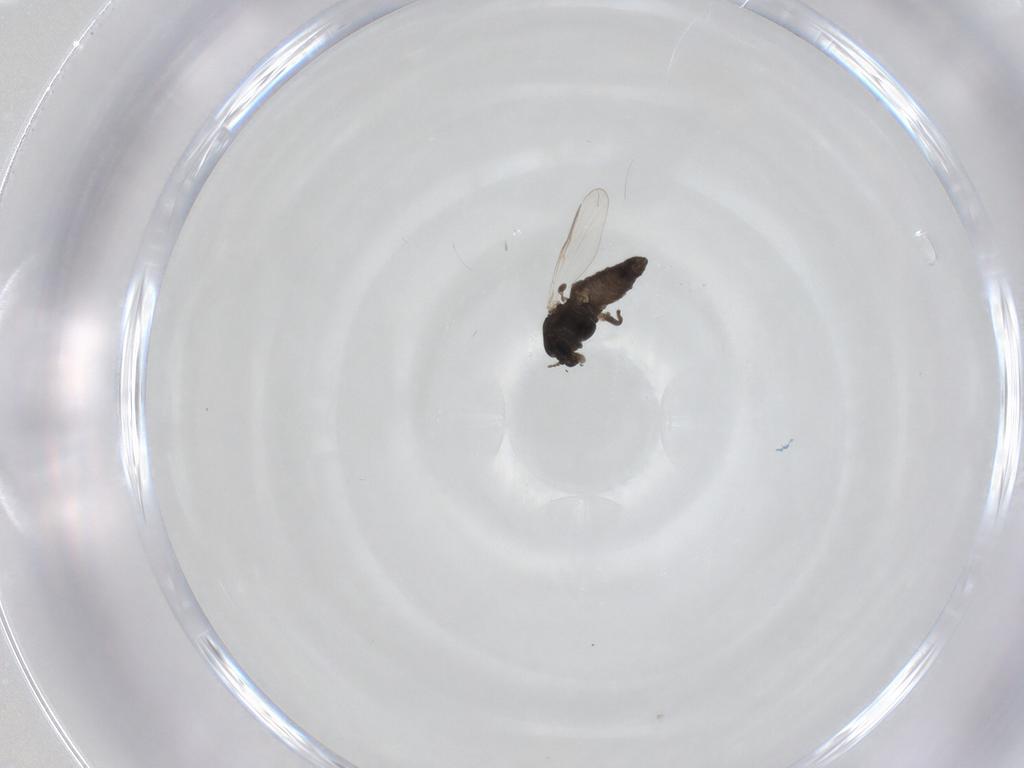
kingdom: Animalia
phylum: Arthropoda
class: Insecta
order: Diptera
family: Chironomidae
